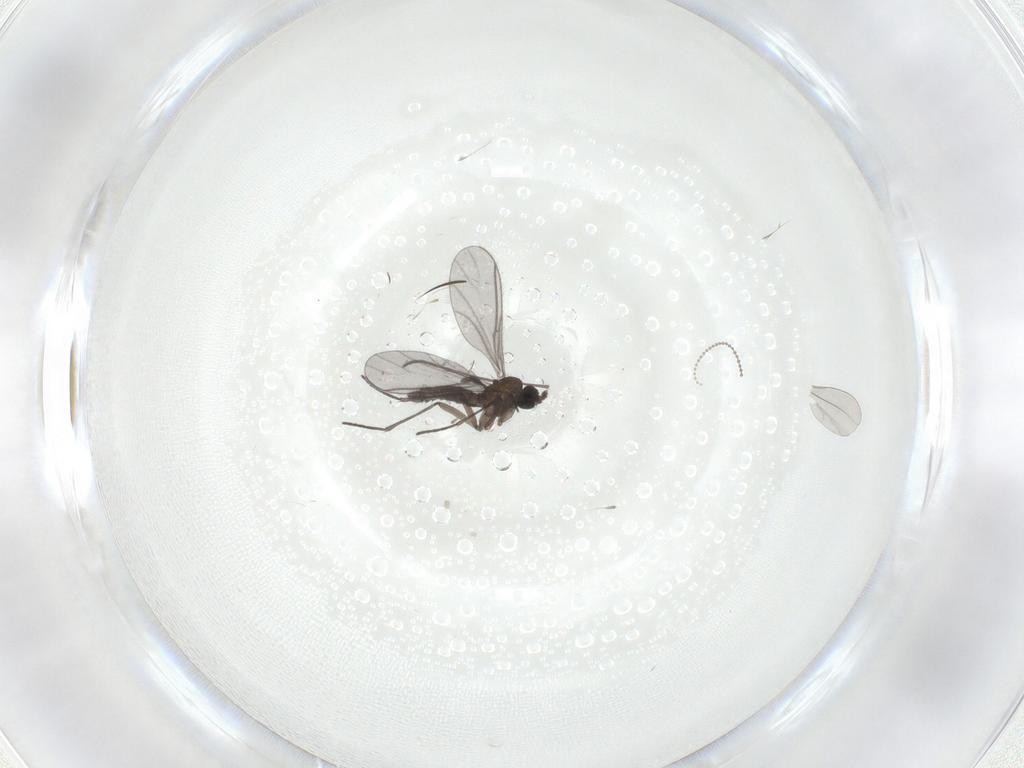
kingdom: Animalia
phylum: Arthropoda
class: Insecta
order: Diptera
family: Cecidomyiidae
